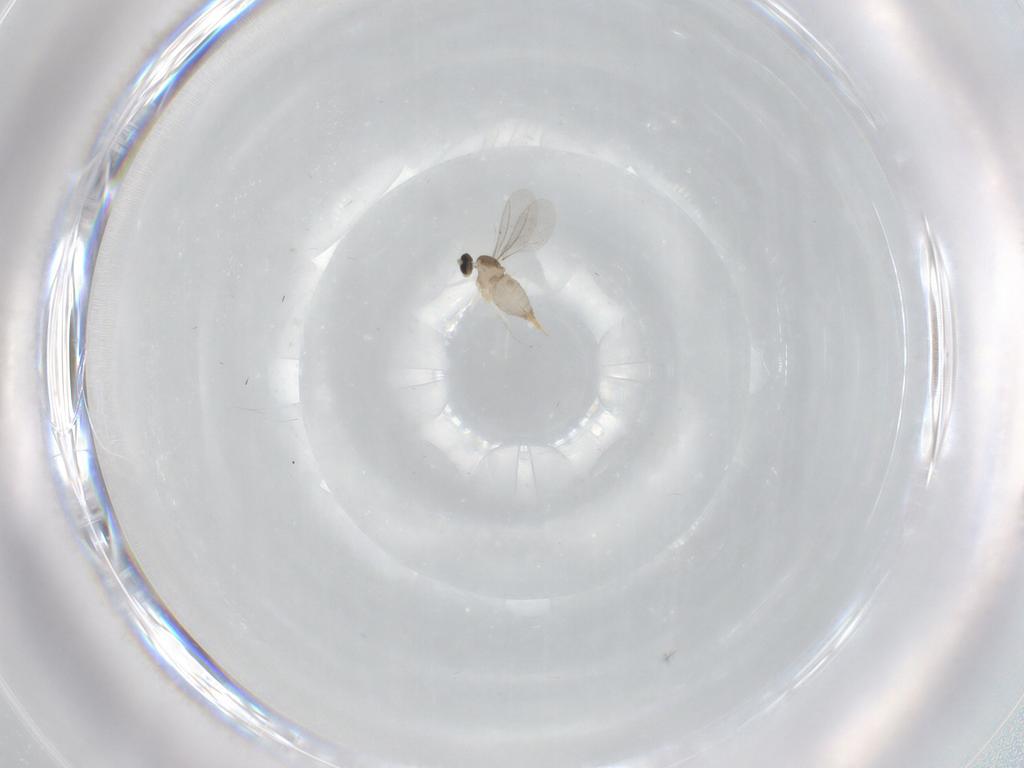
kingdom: Animalia
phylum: Arthropoda
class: Insecta
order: Diptera
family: Cecidomyiidae
